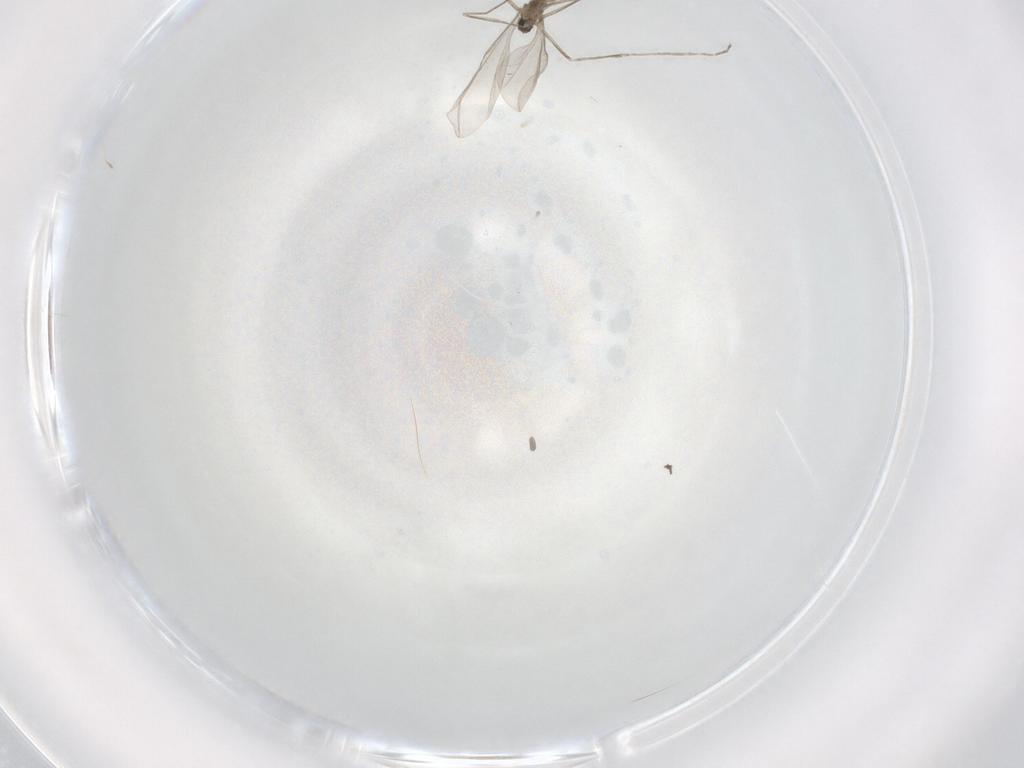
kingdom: Animalia
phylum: Arthropoda
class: Insecta
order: Diptera
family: Cecidomyiidae
